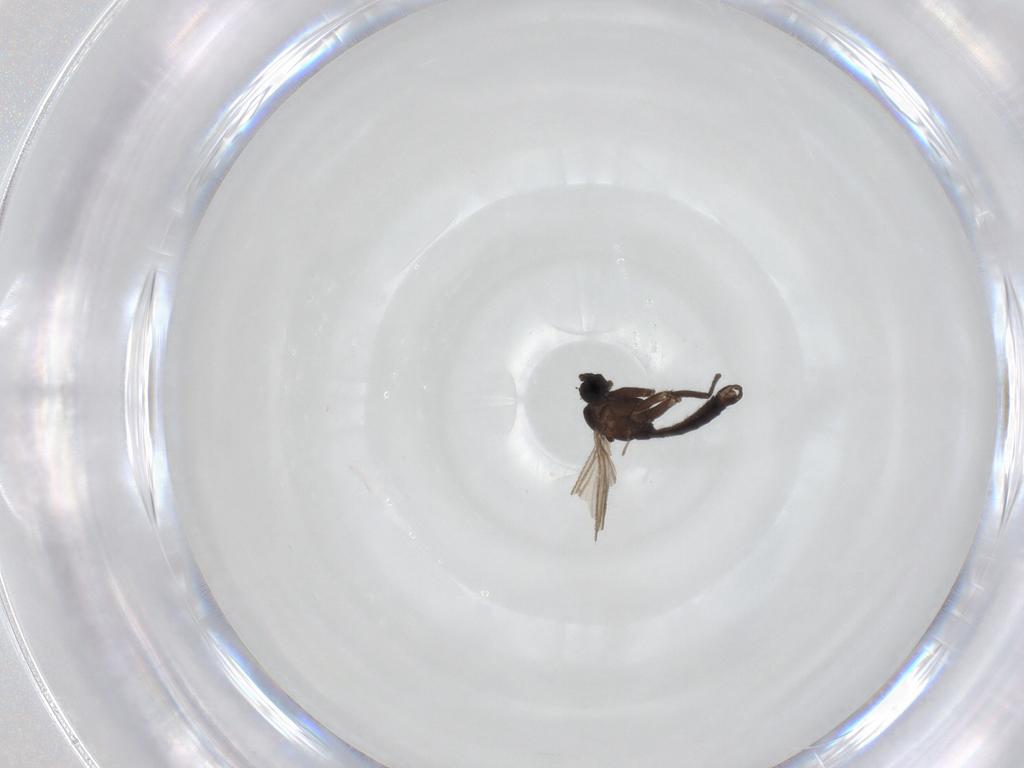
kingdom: Animalia
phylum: Arthropoda
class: Insecta
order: Diptera
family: Sciaridae
